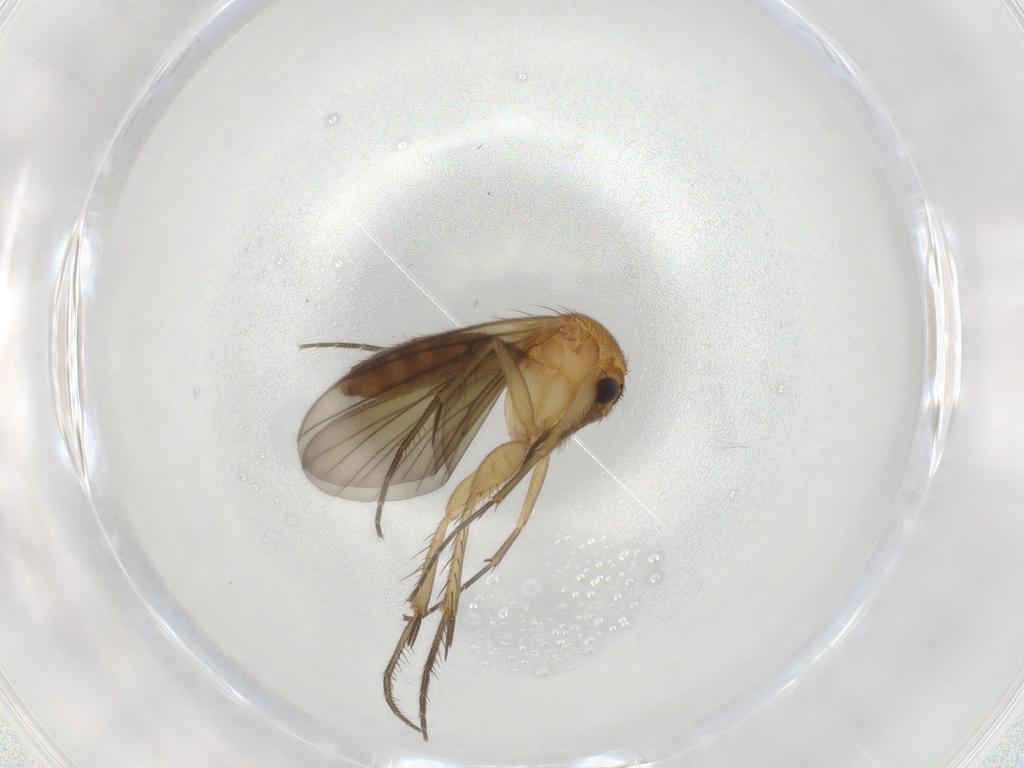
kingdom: Animalia
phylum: Arthropoda
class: Insecta
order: Diptera
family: Mycetophilidae
